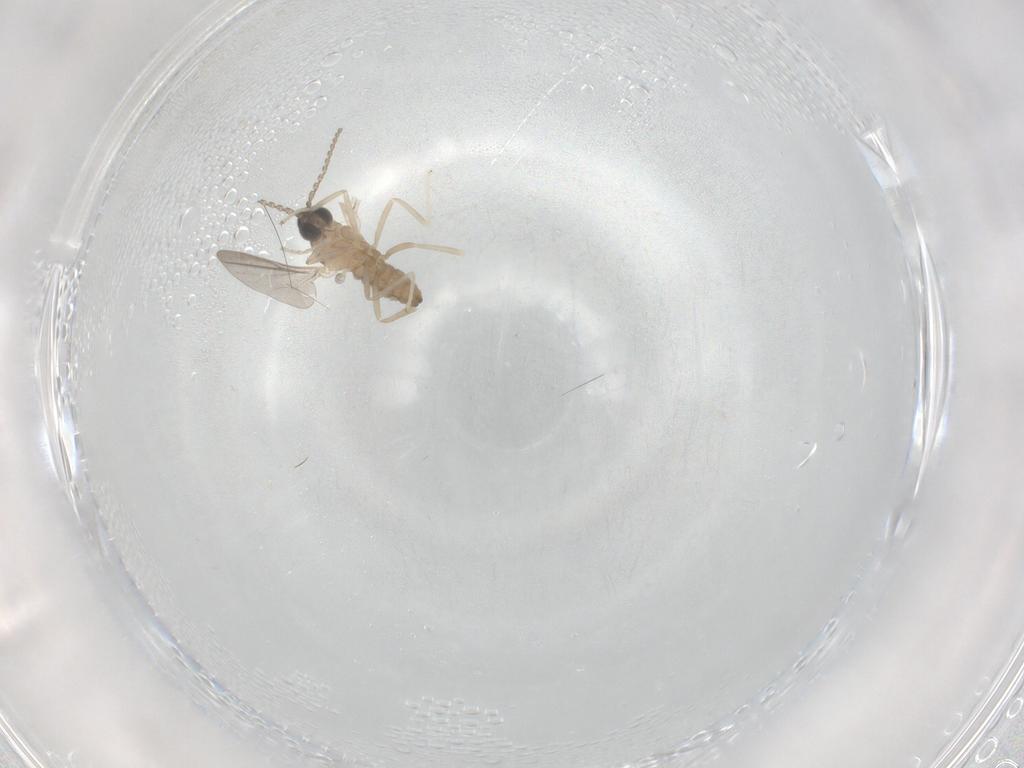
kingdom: Animalia
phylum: Arthropoda
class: Insecta
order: Diptera
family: Cecidomyiidae
